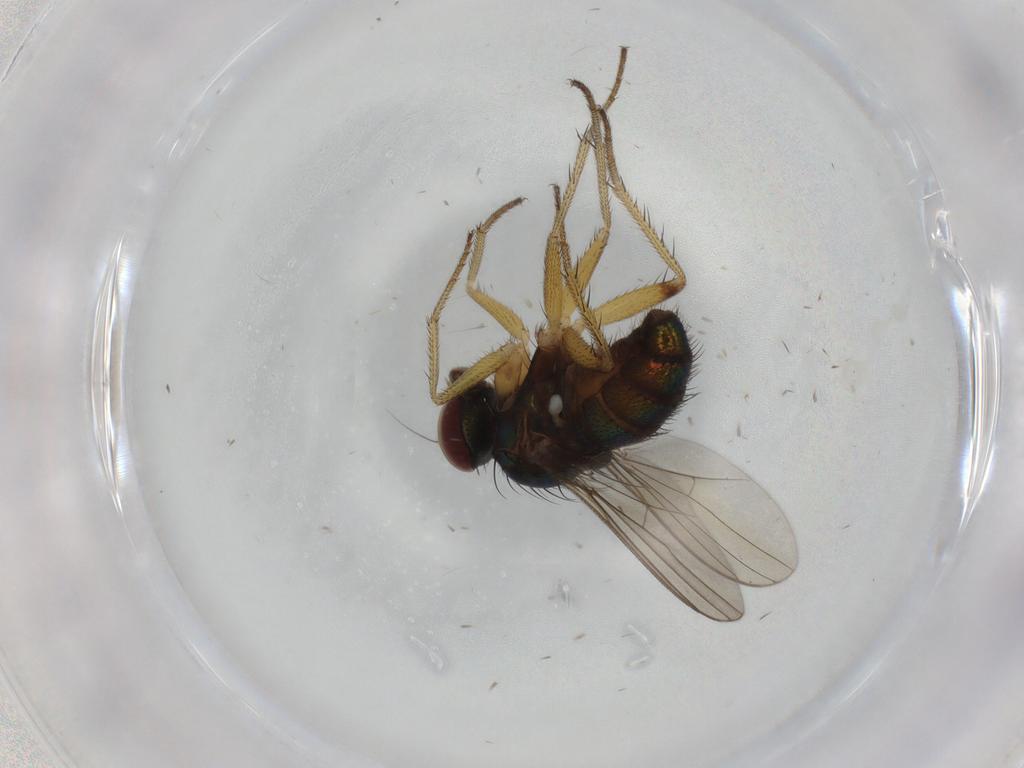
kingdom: Animalia
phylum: Arthropoda
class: Insecta
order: Diptera
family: Dolichopodidae
